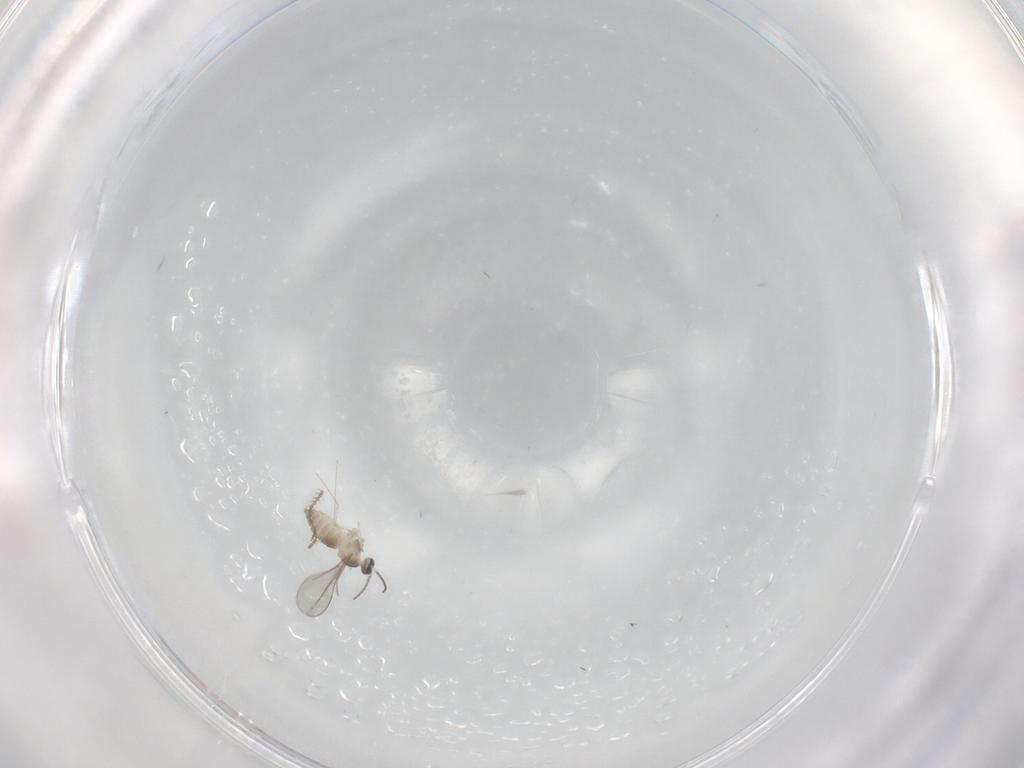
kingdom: Animalia
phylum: Arthropoda
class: Insecta
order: Diptera
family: Cecidomyiidae
